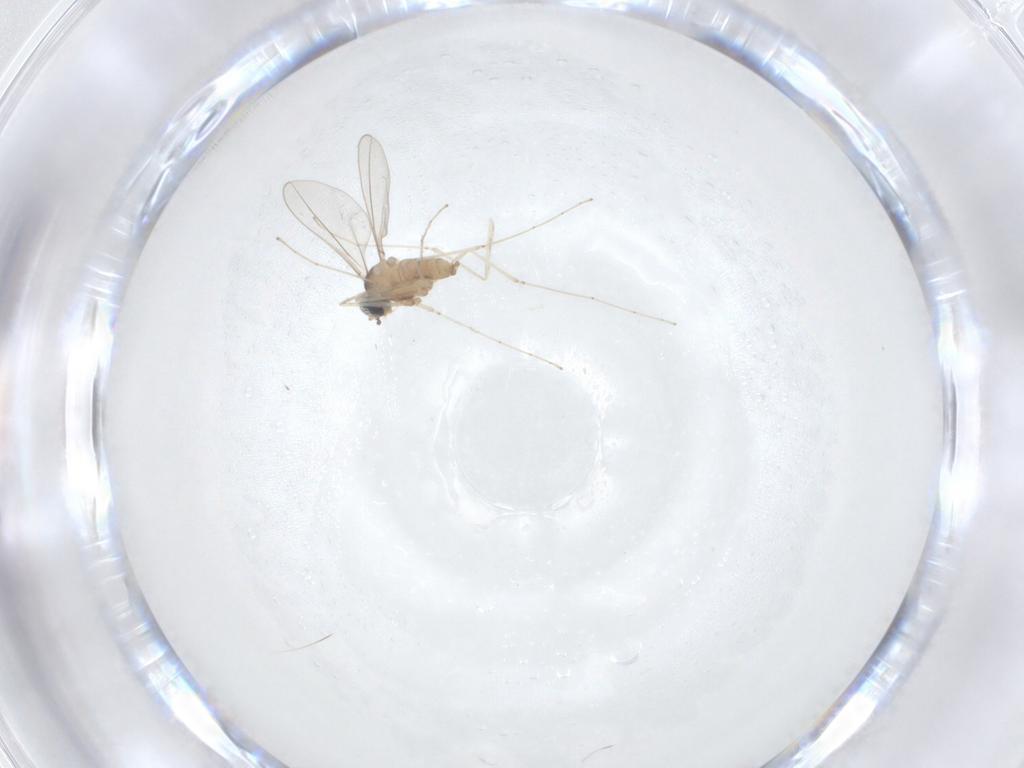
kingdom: Animalia
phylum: Arthropoda
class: Insecta
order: Diptera
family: Cecidomyiidae
